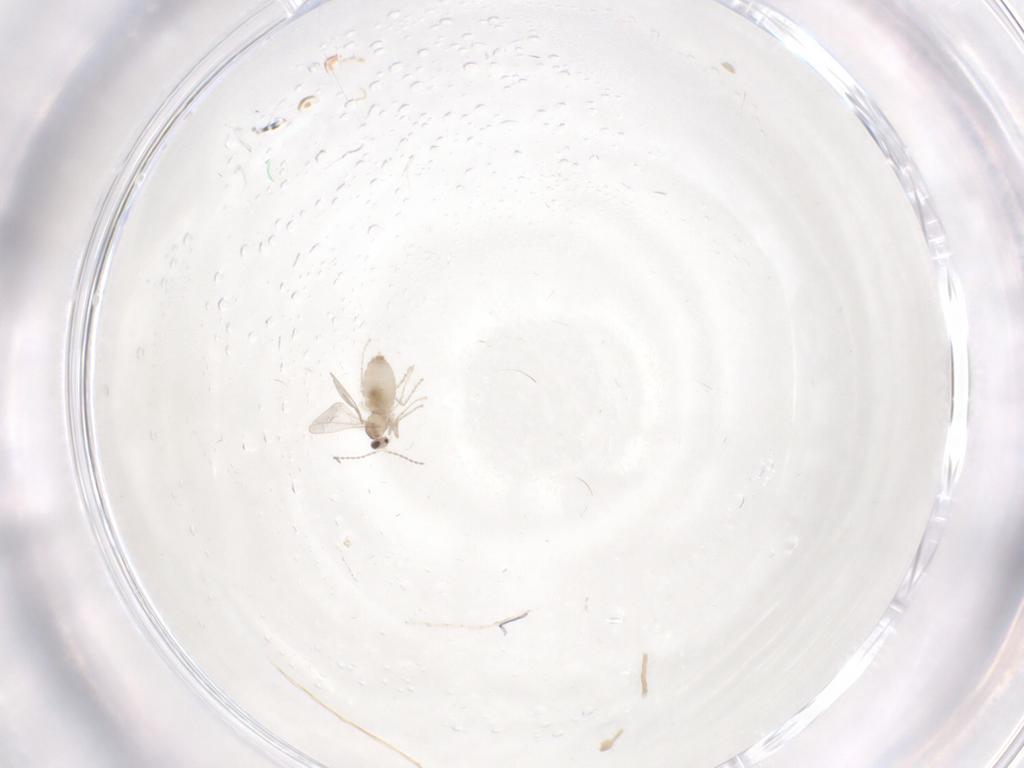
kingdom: Animalia
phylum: Arthropoda
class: Insecta
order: Diptera
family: Cecidomyiidae
